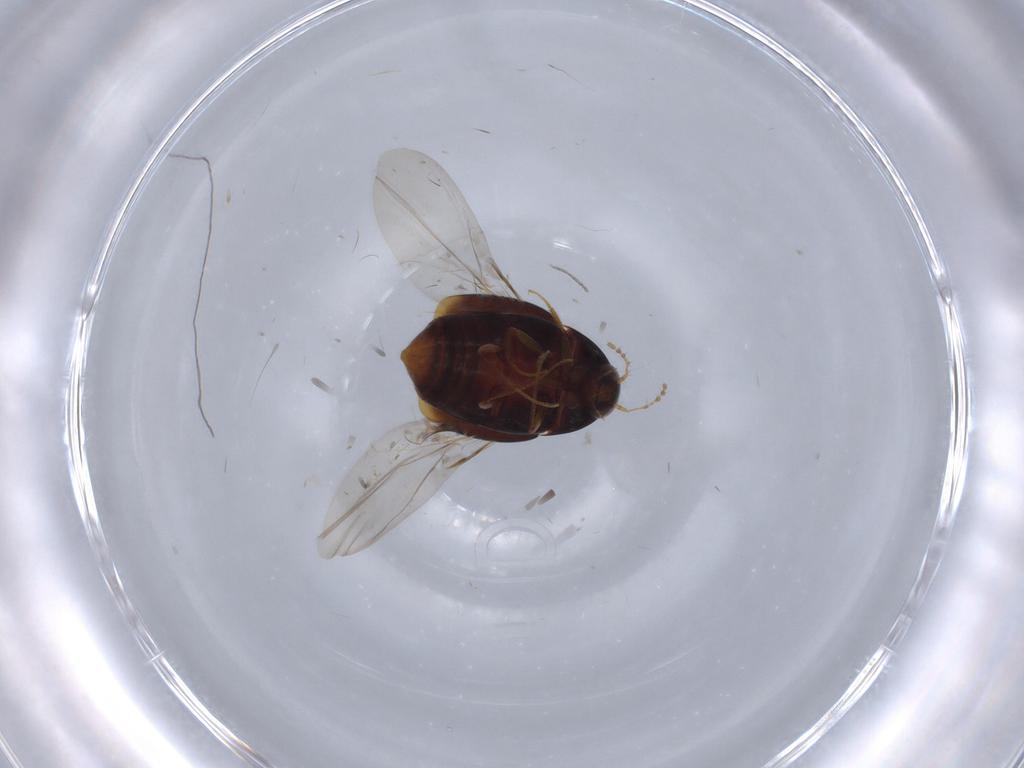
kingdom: Animalia
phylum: Arthropoda
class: Insecta
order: Coleoptera
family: Staphylinidae
